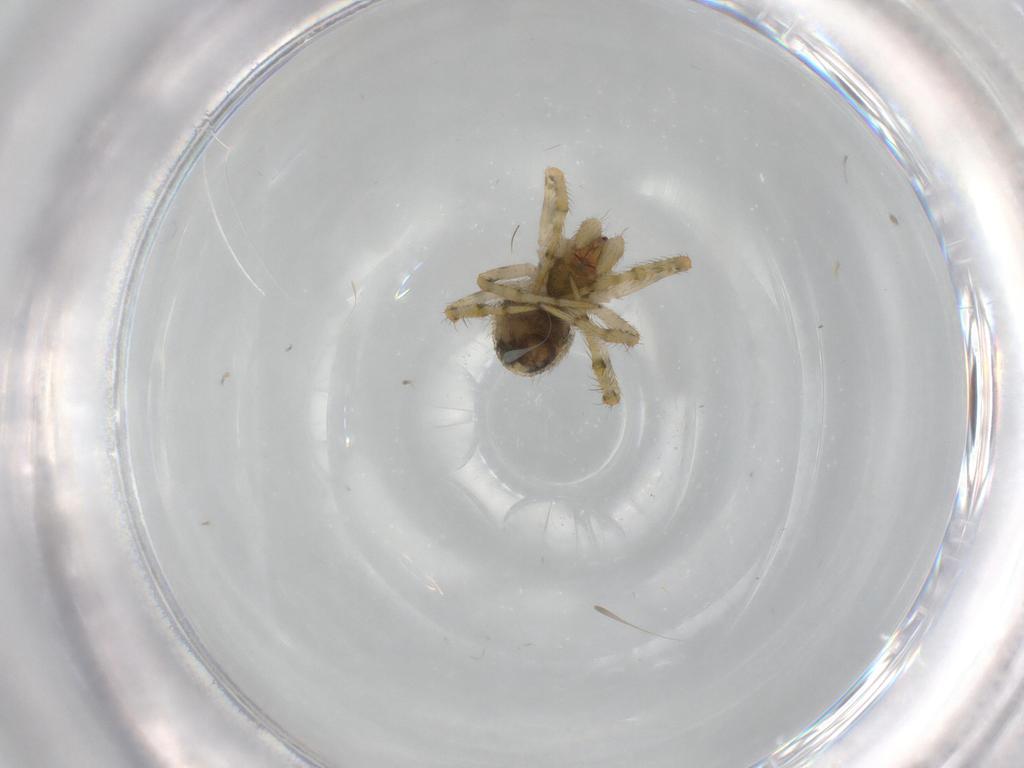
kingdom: Animalia
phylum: Arthropoda
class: Arachnida
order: Araneae
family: Theridiidae
